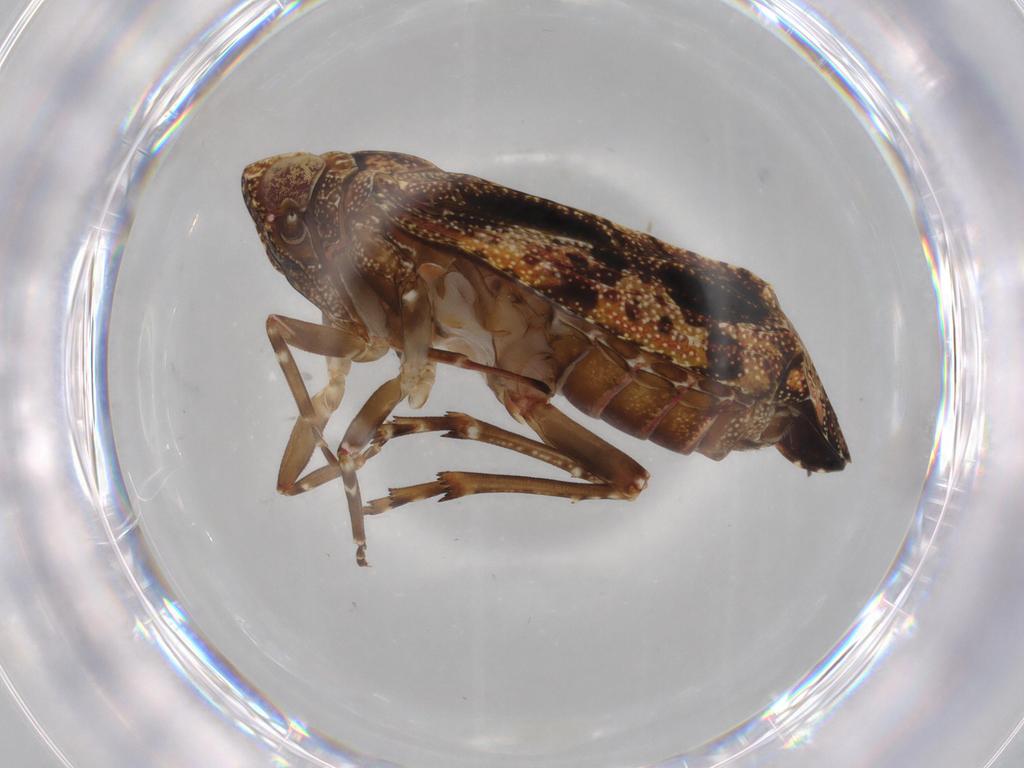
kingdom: Animalia
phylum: Arthropoda
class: Insecta
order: Hemiptera
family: Achilidae
